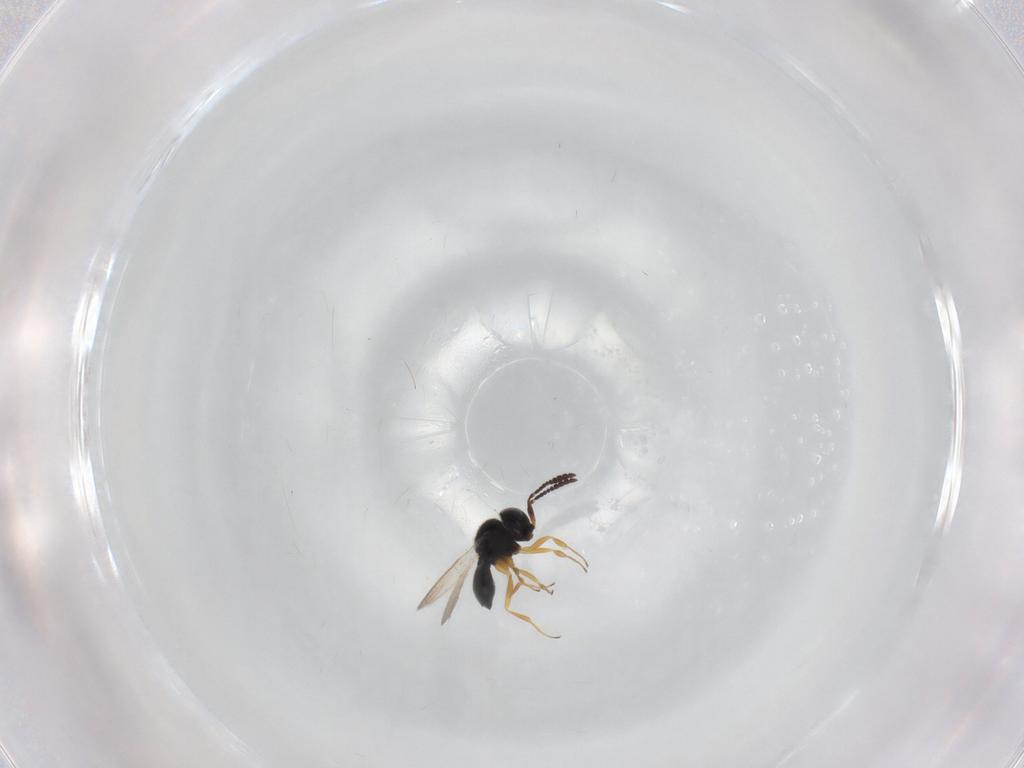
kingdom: Animalia
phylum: Arthropoda
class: Insecta
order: Hymenoptera
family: Scelionidae
